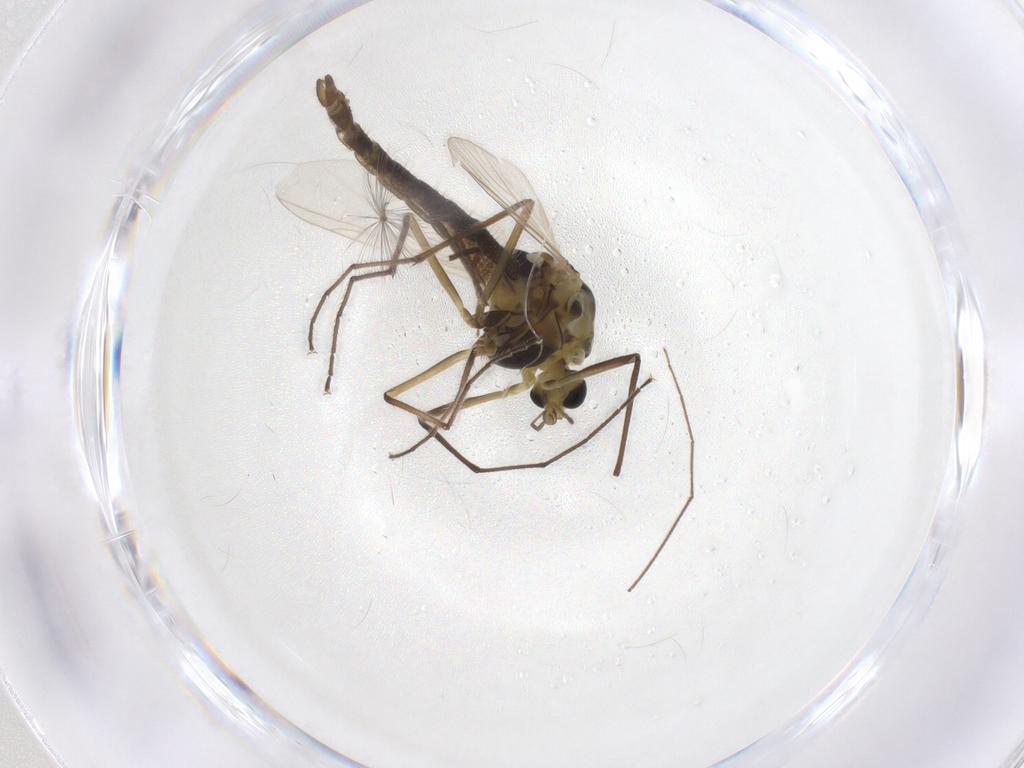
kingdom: Animalia
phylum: Arthropoda
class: Insecta
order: Diptera
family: Chironomidae
